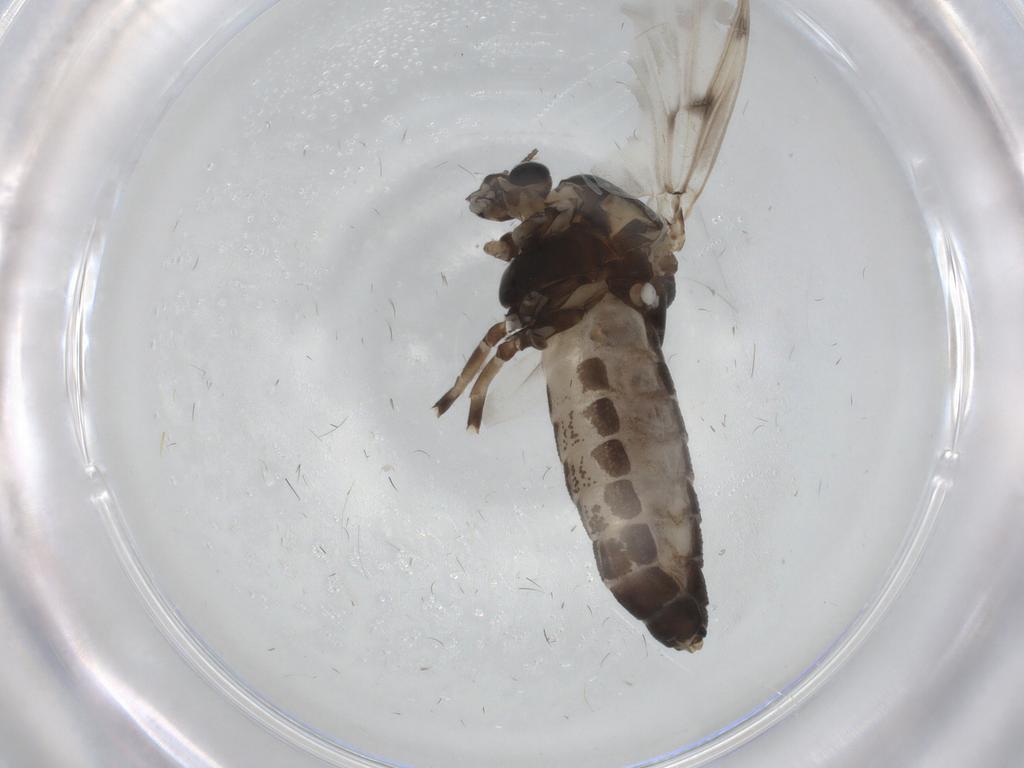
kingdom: Animalia
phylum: Arthropoda
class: Insecta
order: Diptera
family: Chironomidae
